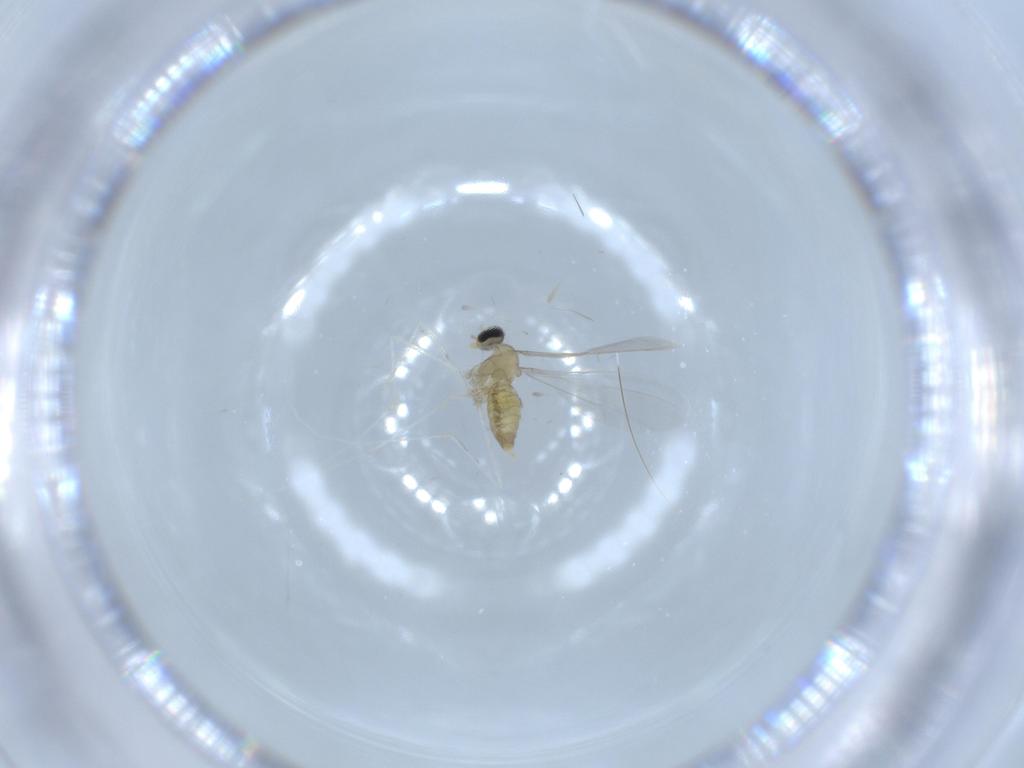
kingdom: Animalia
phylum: Arthropoda
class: Insecta
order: Diptera
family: Cecidomyiidae
